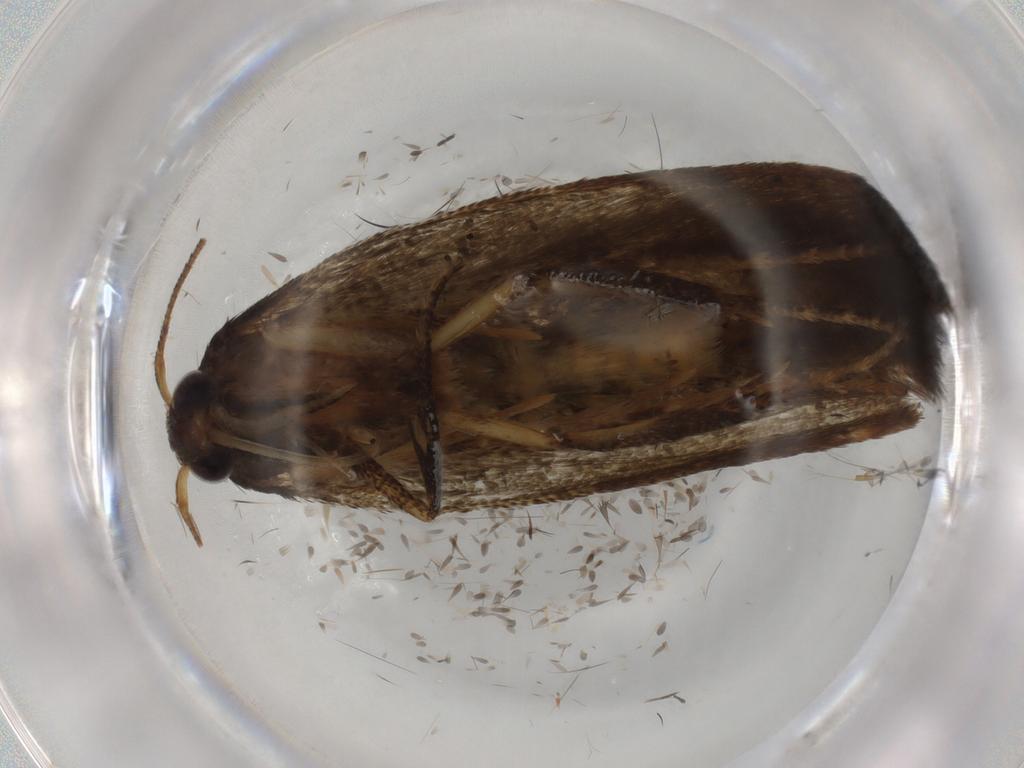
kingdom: Animalia
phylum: Arthropoda
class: Insecta
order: Lepidoptera
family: Blastobasidae
